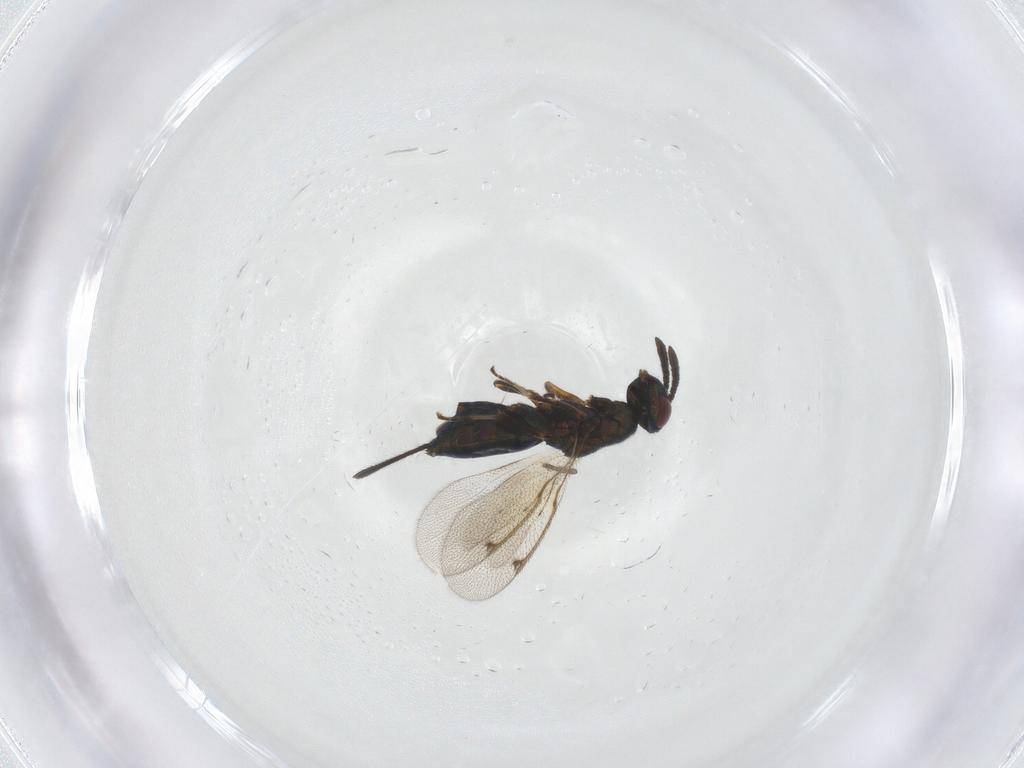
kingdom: Animalia
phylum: Arthropoda
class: Insecta
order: Hymenoptera
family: Torymidae
